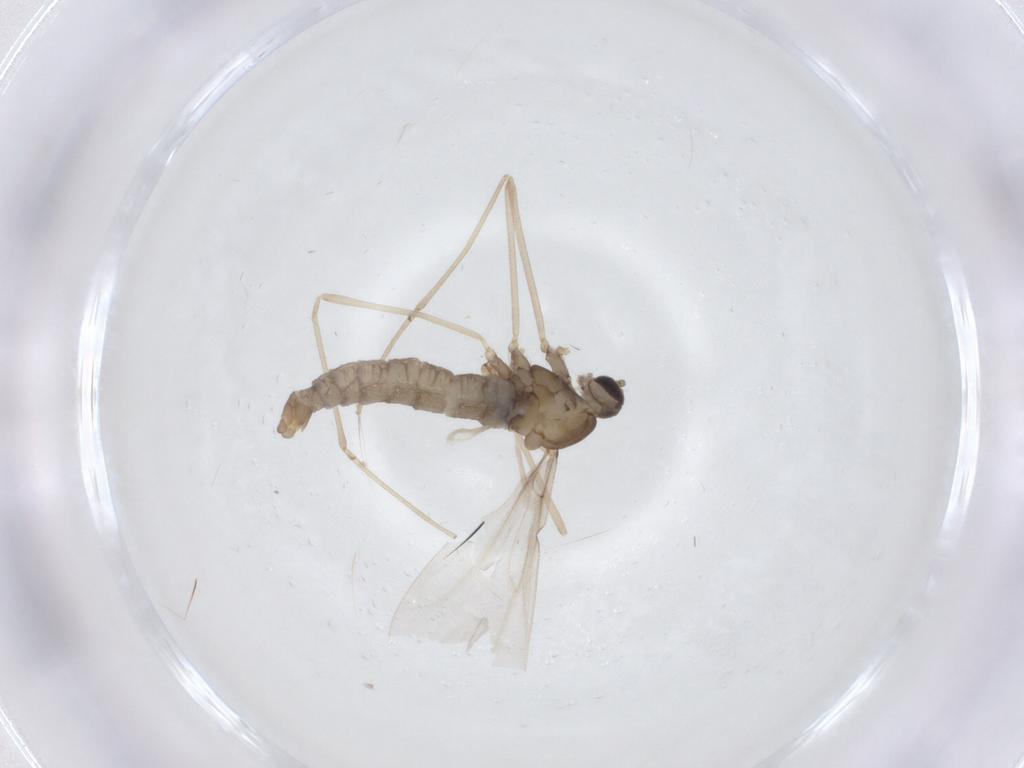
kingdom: Animalia
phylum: Arthropoda
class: Insecta
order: Diptera
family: Cecidomyiidae
